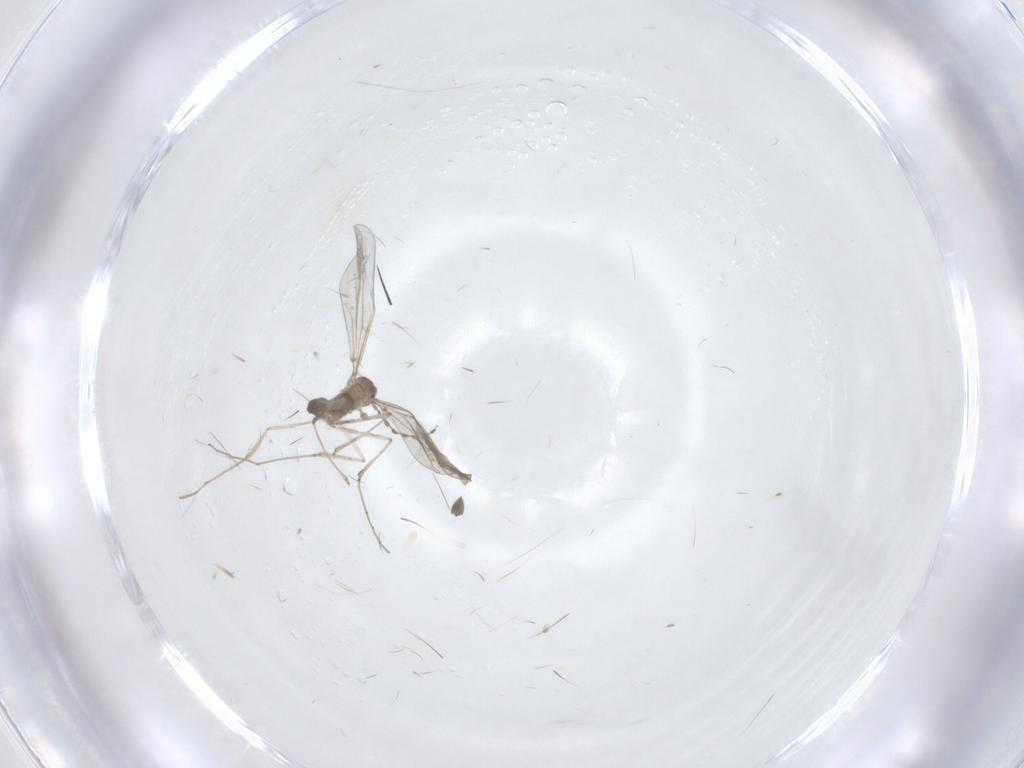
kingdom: Animalia
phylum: Arthropoda
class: Insecta
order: Diptera
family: Cecidomyiidae
